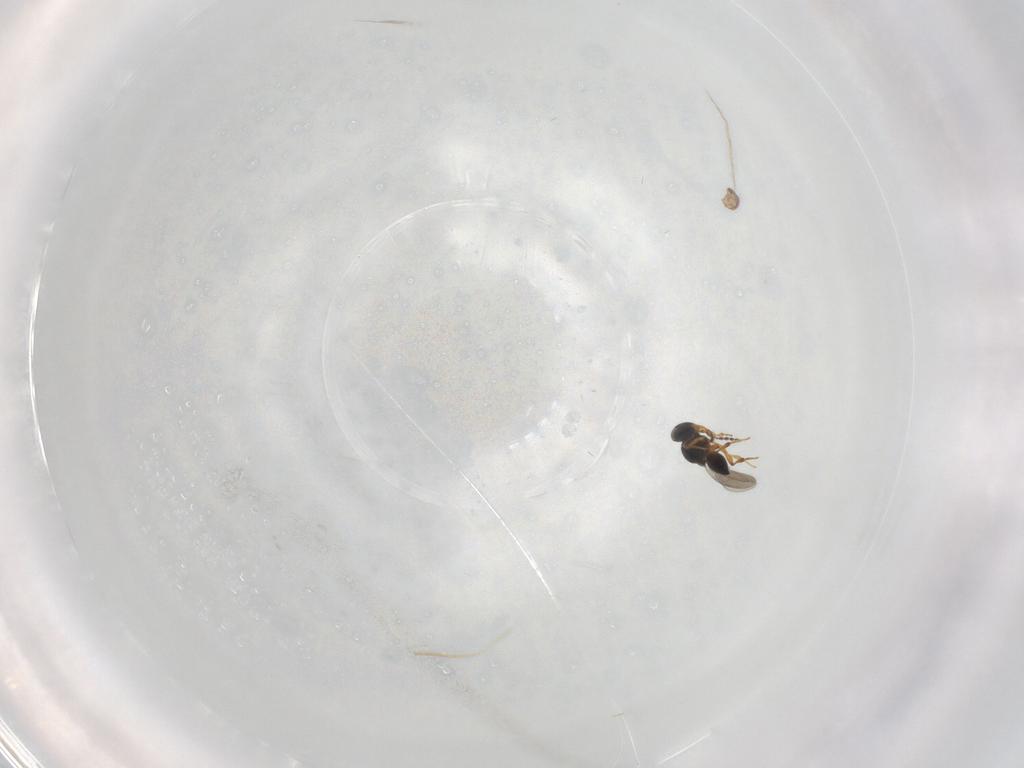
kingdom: Animalia
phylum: Arthropoda
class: Insecta
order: Hymenoptera
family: Platygastridae
